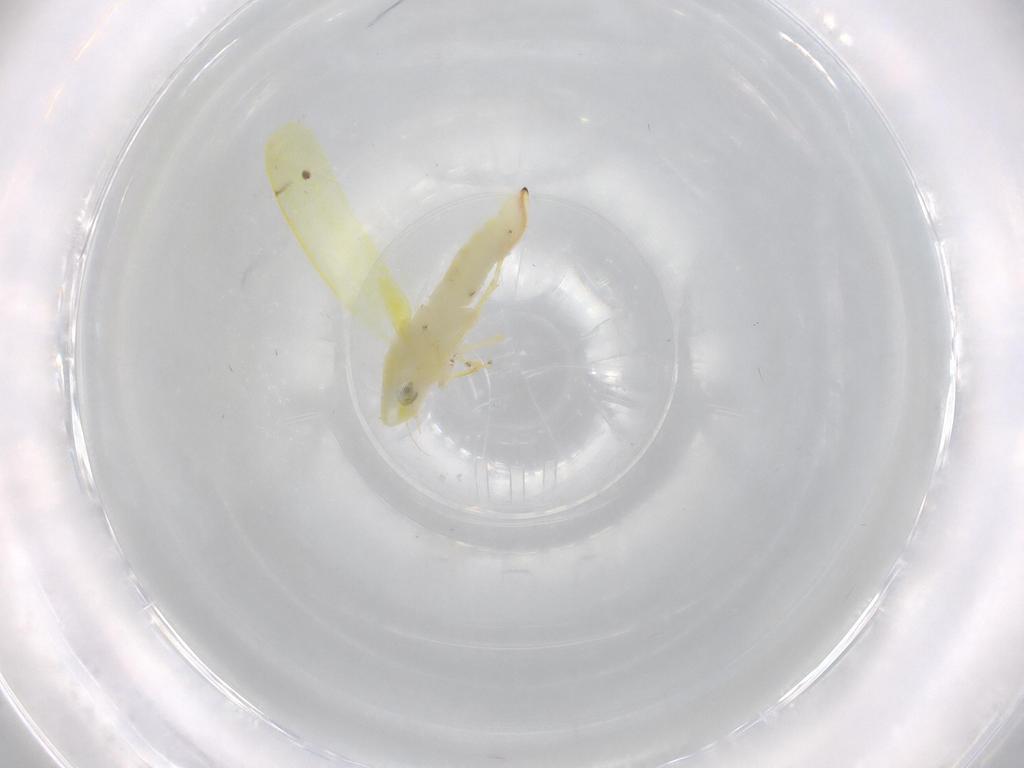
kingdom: Animalia
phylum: Arthropoda
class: Insecta
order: Hemiptera
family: Cicadellidae
